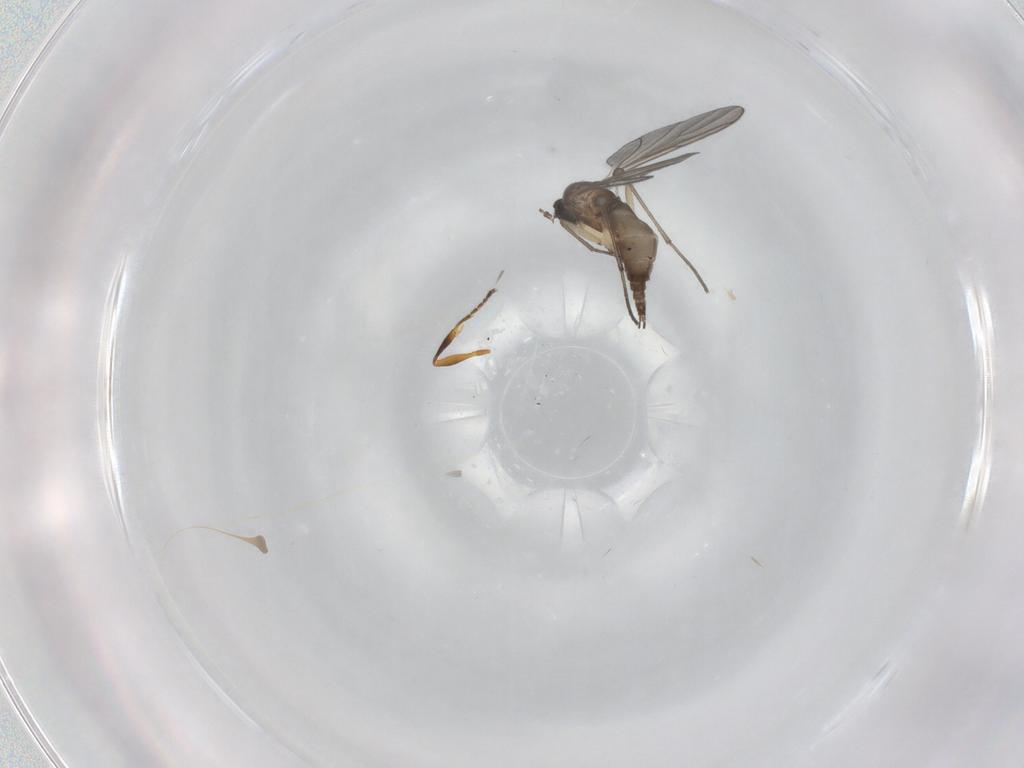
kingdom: Animalia
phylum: Arthropoda
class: Insecta
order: Diptera
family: Sciaridae
